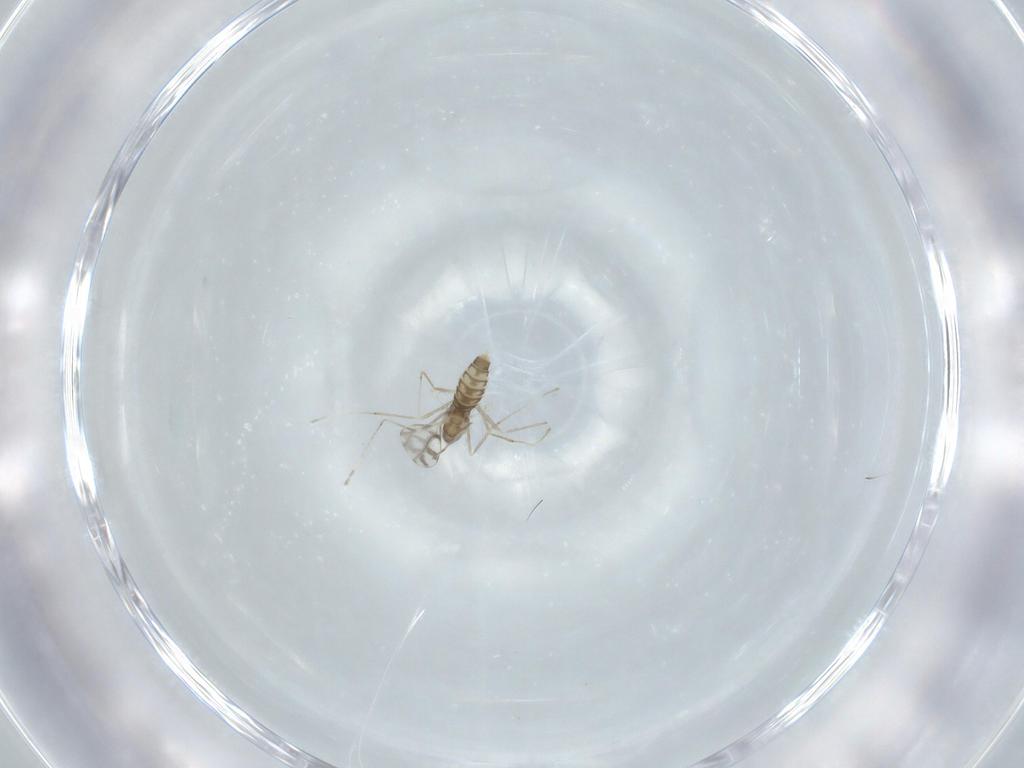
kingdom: Animalia
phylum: Arthropoda
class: Insecta
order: Diptera
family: Cecidomyiidae
